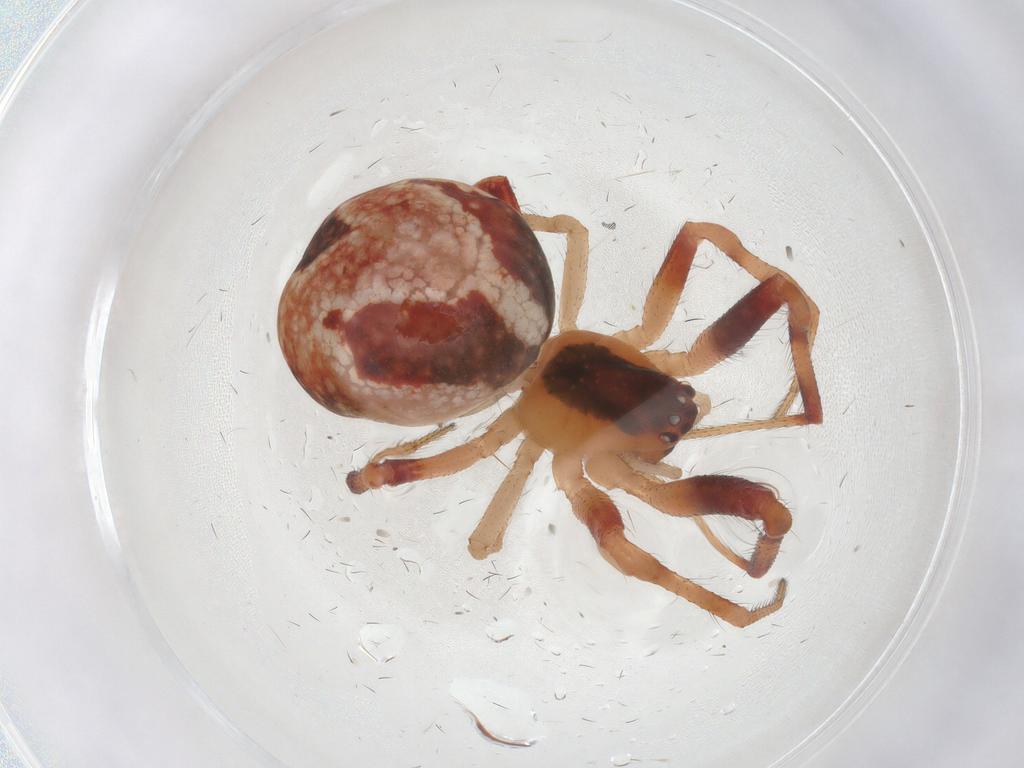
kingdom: Animalia
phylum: Arthropoda
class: Arachnida
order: Araneae
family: Theridiidae
